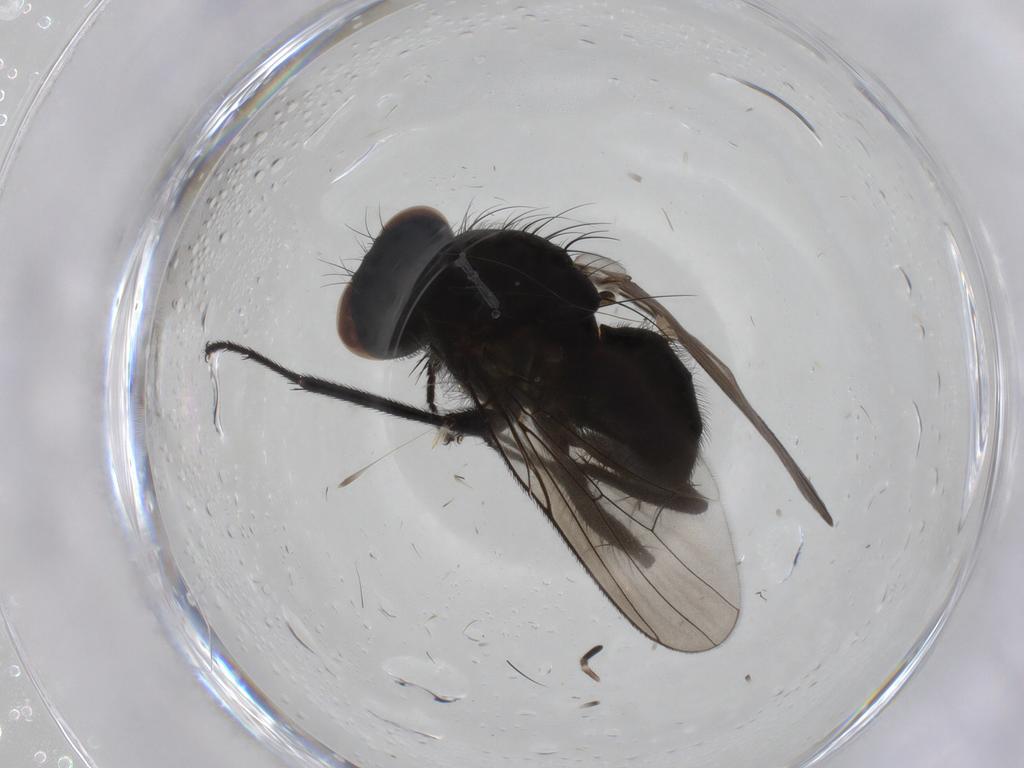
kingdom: Animalia
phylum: Arthropoda
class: Insecta
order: Diptera
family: Muscidae
